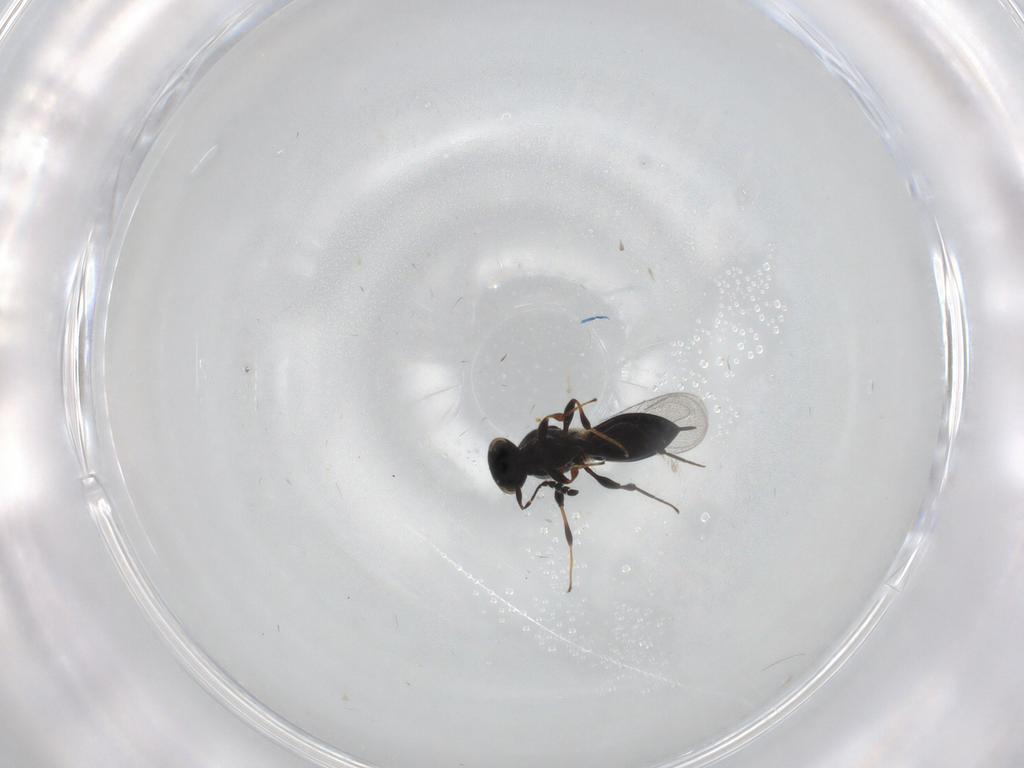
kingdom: Animalia
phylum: Arthropoda
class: Insecta
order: Hymenoptera
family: Platygastridae
